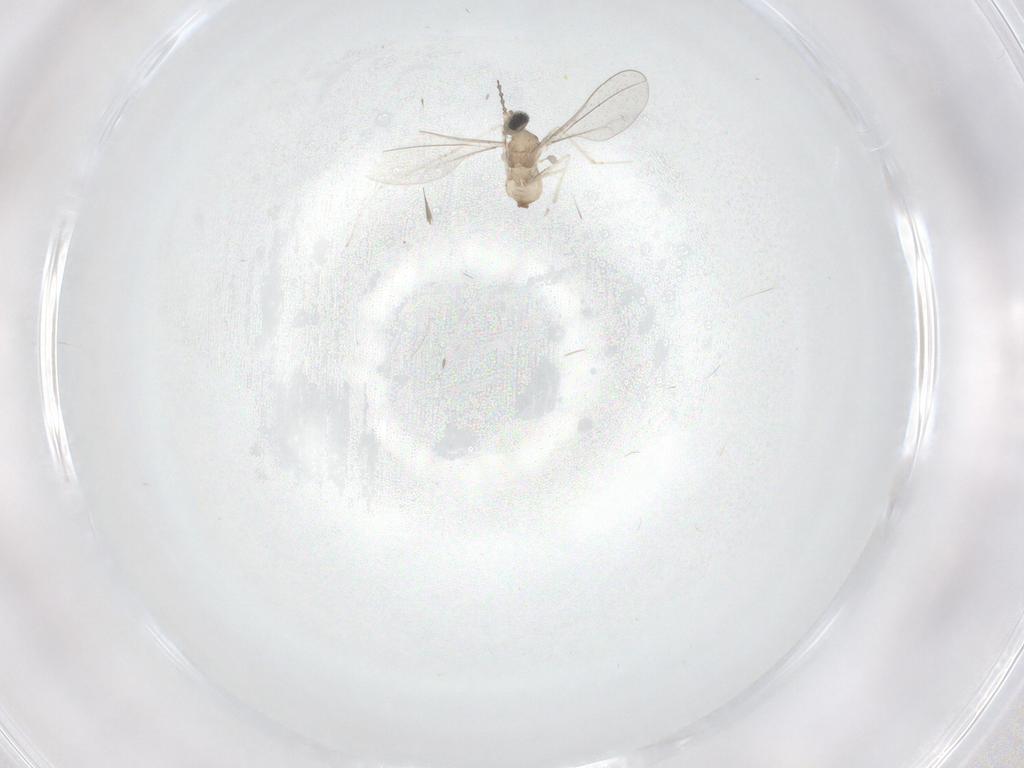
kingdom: Animalia
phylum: Arthropoda
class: Insecta
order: Diptera
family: Cecidomyiidae
